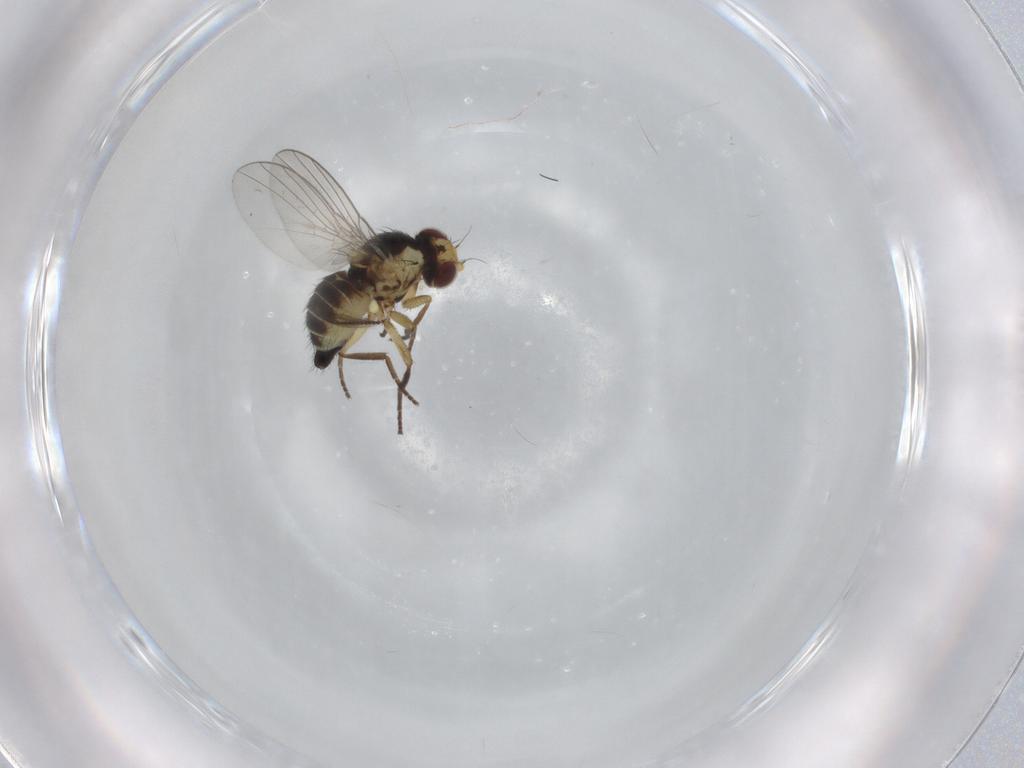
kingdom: Animalia
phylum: Arthropoda
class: Insecta
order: Diptera
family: Agromyzidae
